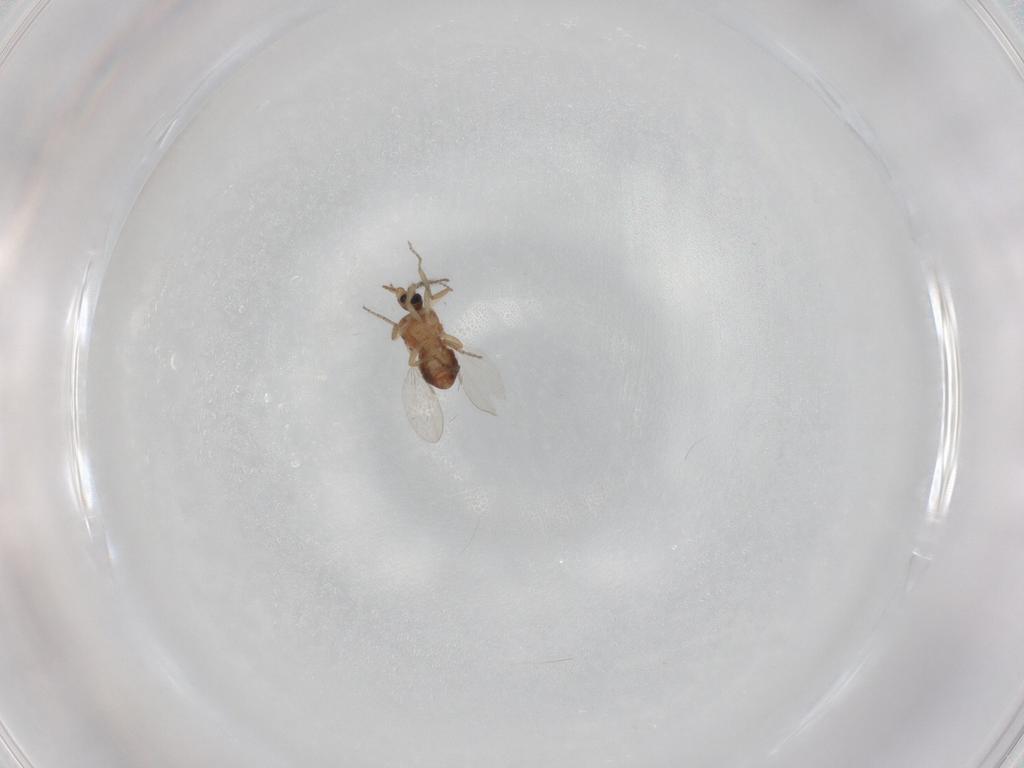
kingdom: Animalia
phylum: Arthropoda
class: Insecta
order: Diptera
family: Ceratopogonidae
